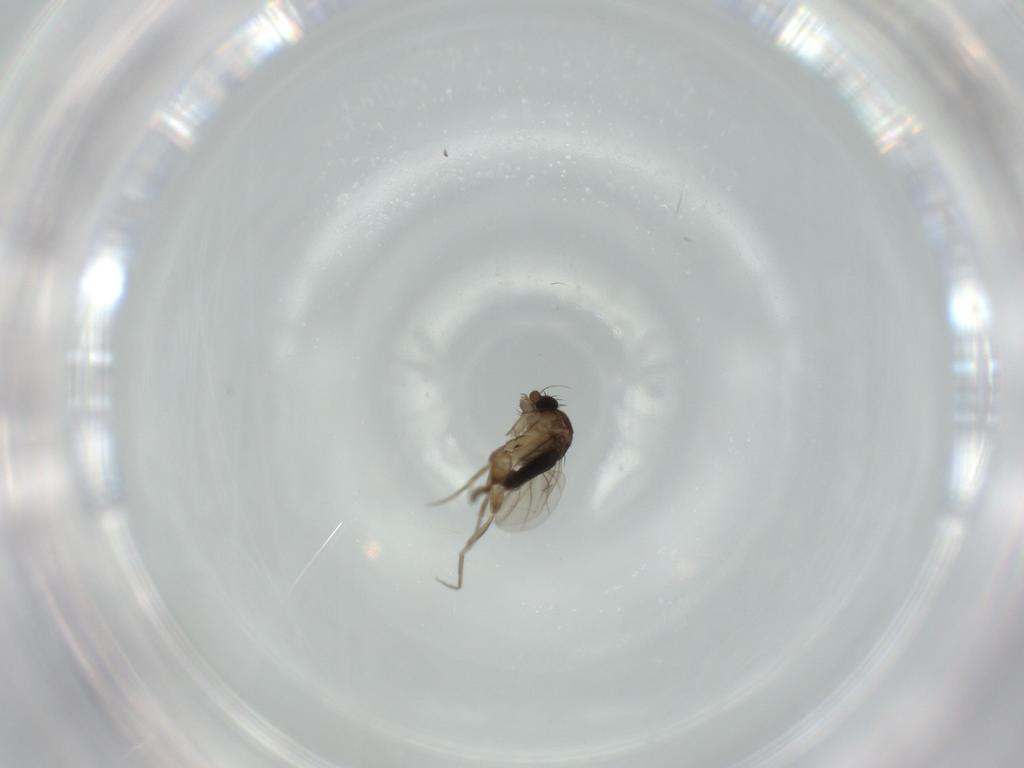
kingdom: Animalia
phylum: Arthropoda
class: Insecta
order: Diptera
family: Phoridae
